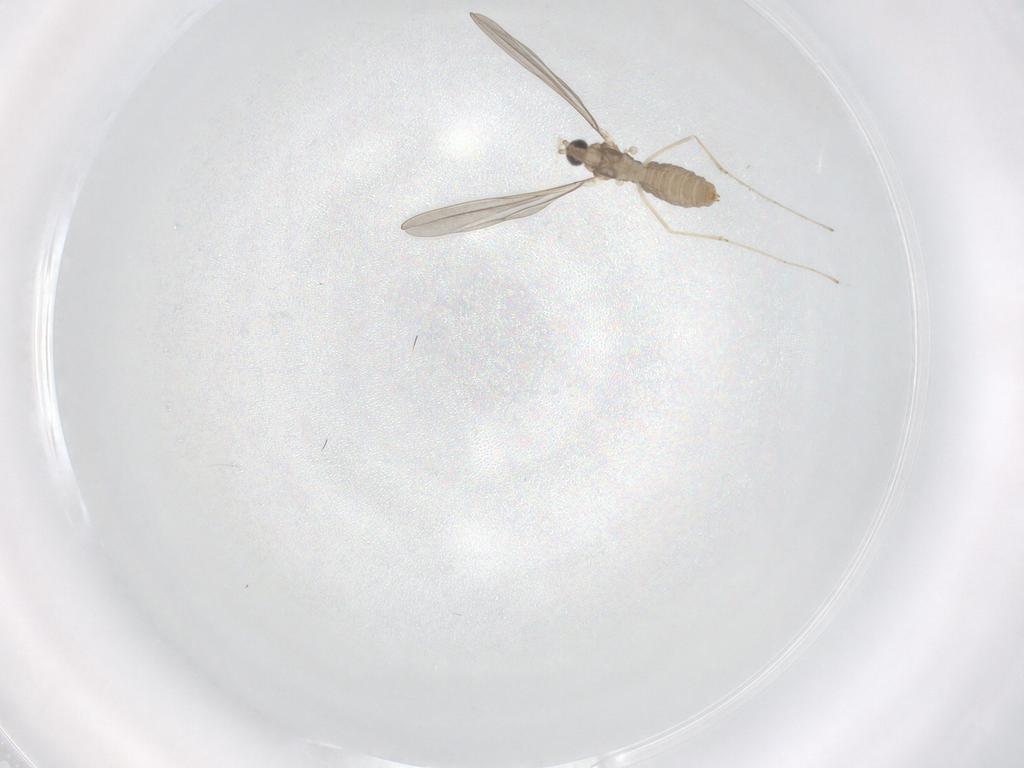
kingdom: Animalia
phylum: Arthropoda
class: Insecta
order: Diptera
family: Cecidomyiidae
